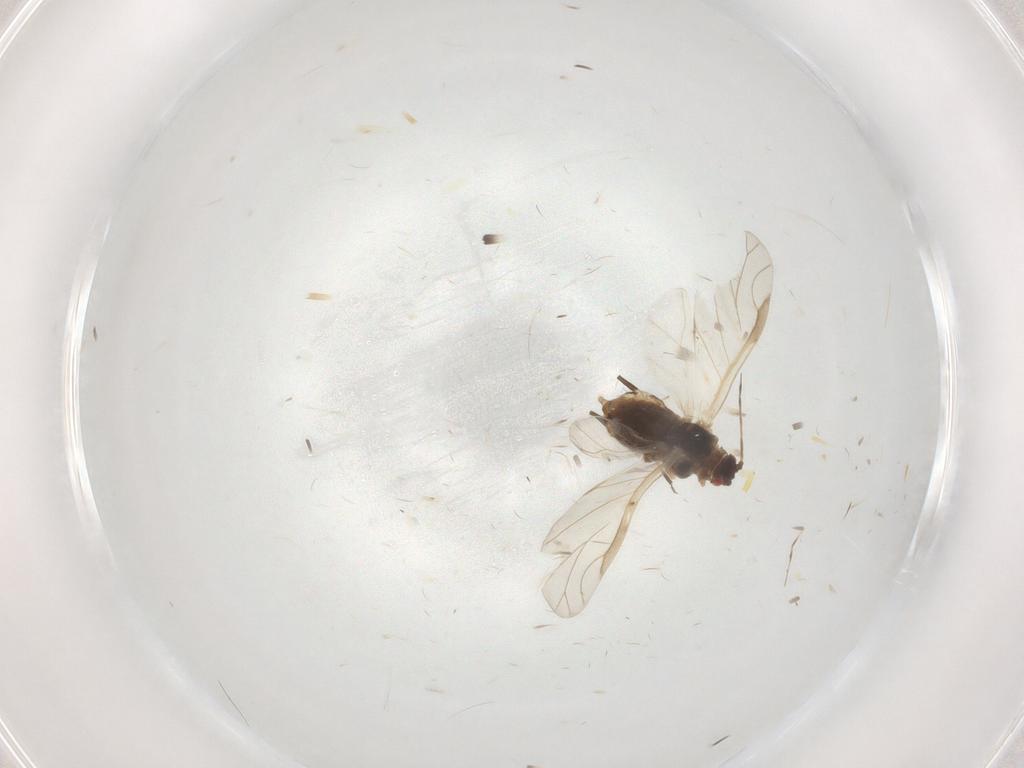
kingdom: Animalia
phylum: Arthropoda
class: Insecta
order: Hemiptera
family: Aphididae
